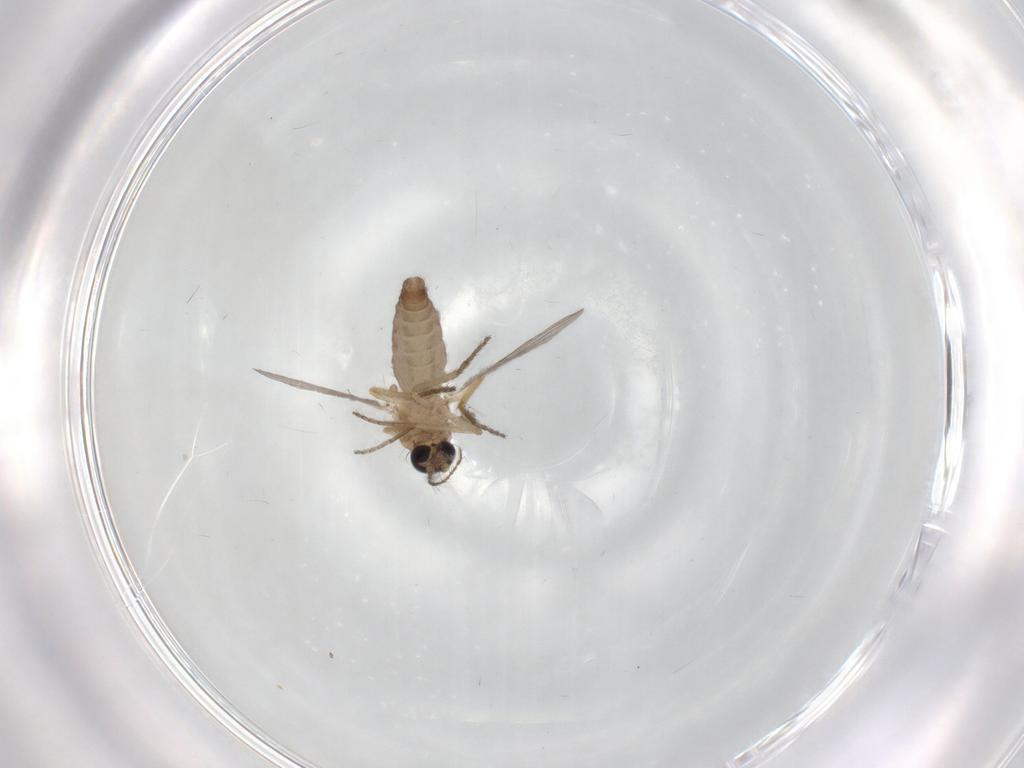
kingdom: Animalia
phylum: Arthropoda
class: Insecta
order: Diptera
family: Ceratopogonidae
